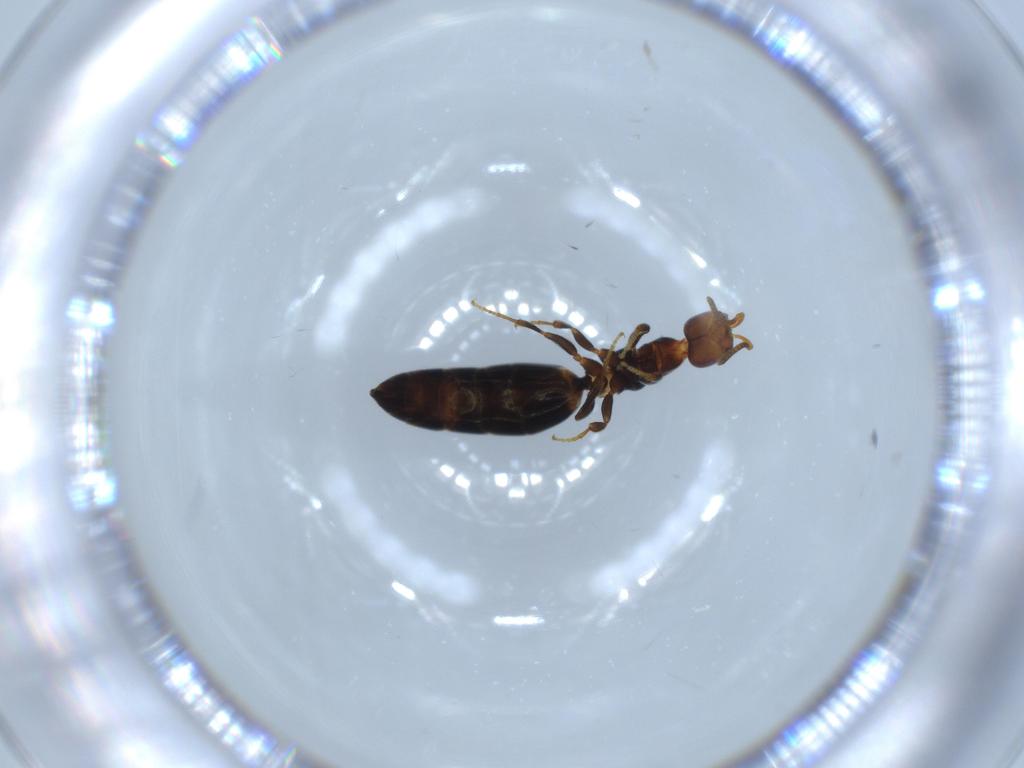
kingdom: Animalia
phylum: Arthropoda
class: Insecta
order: Hymenoptera
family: Bethylidae
